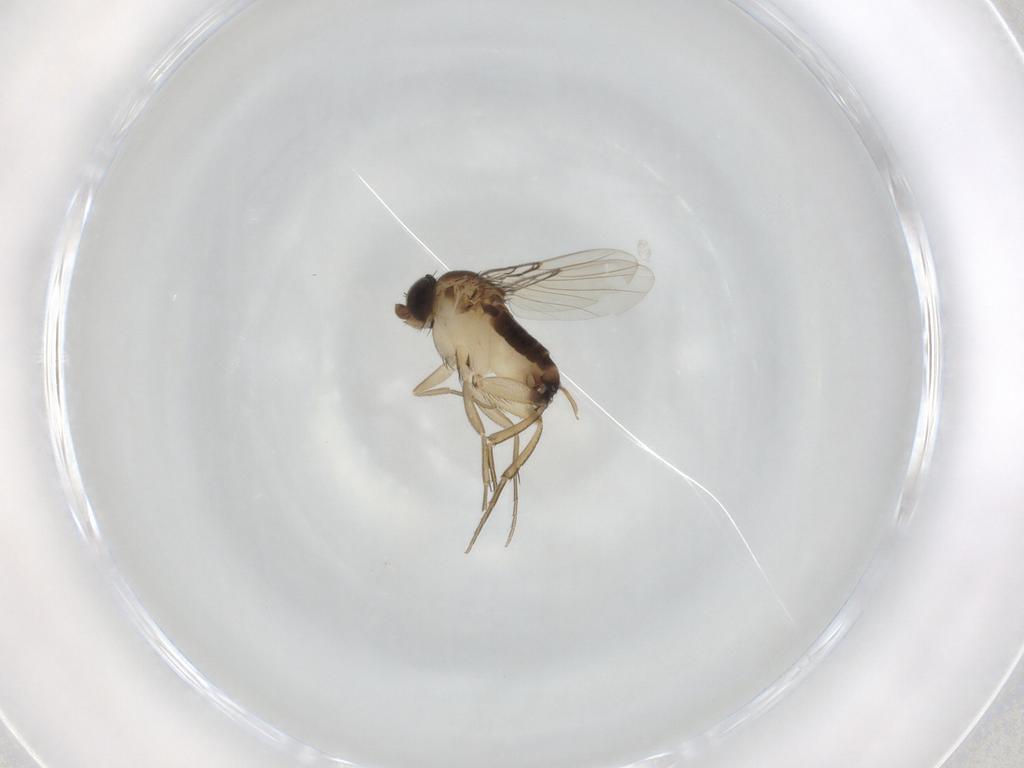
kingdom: Animalia
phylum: Arthropoda
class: Insecta
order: Diptera
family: Phoridae
